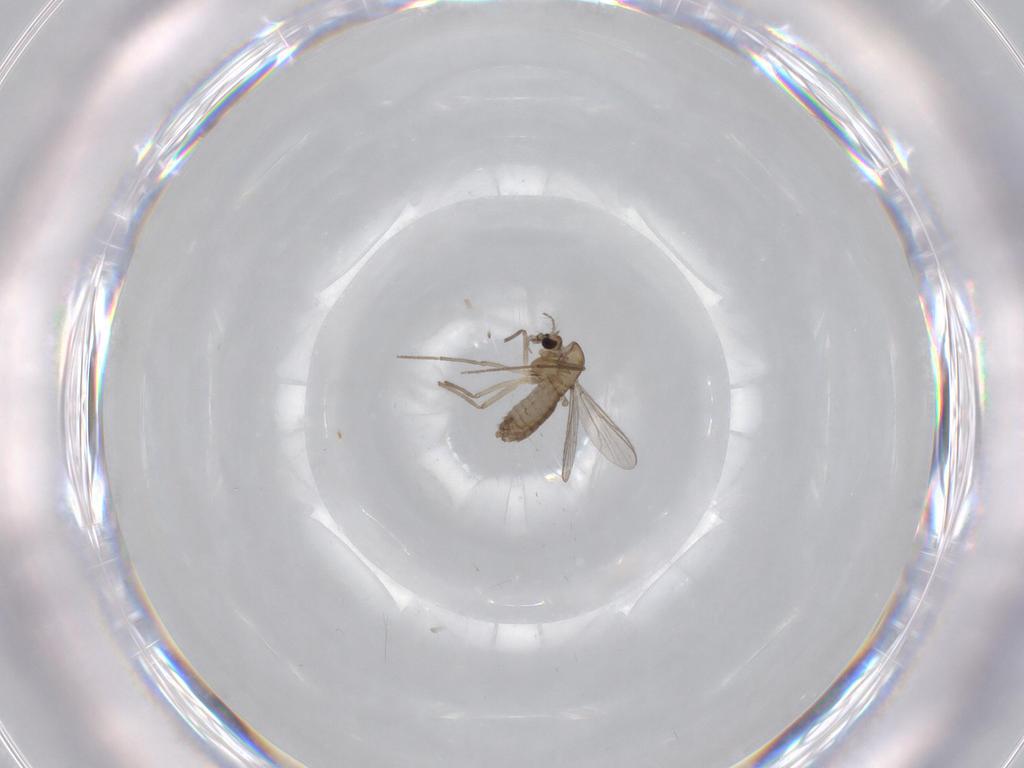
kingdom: Animalia
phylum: Arthropoda
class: Insecta
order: Diptera
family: Chironomidae
